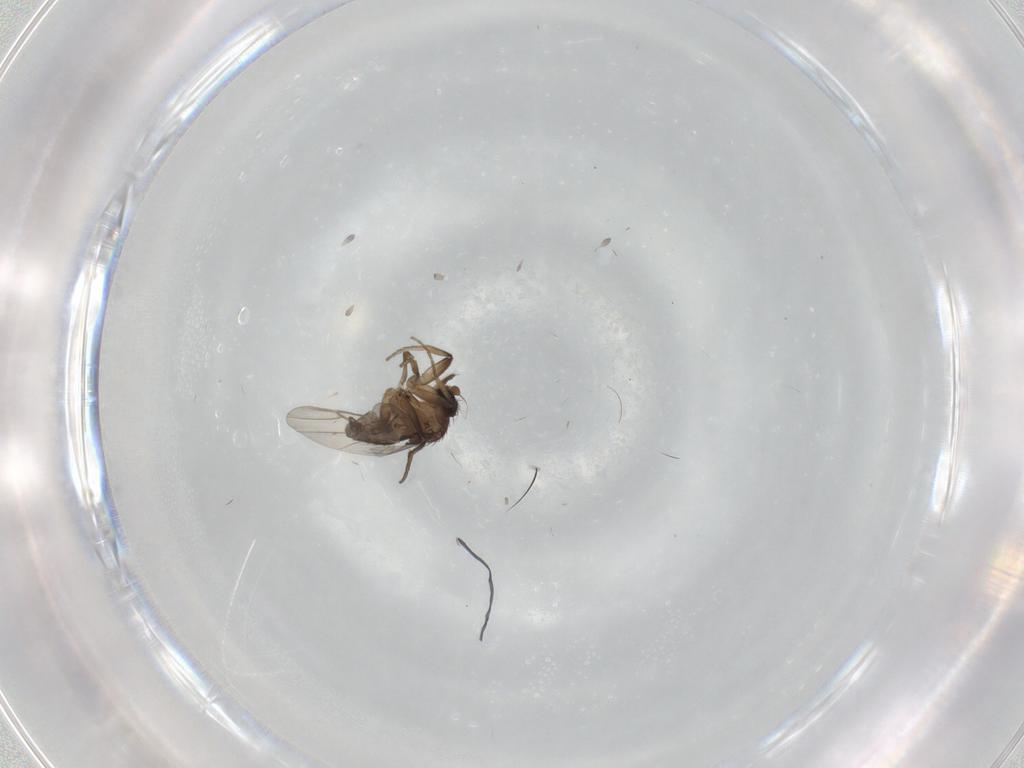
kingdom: Animalia
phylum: Arthropoda
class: Insecta
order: Diptera
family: Phoridae
